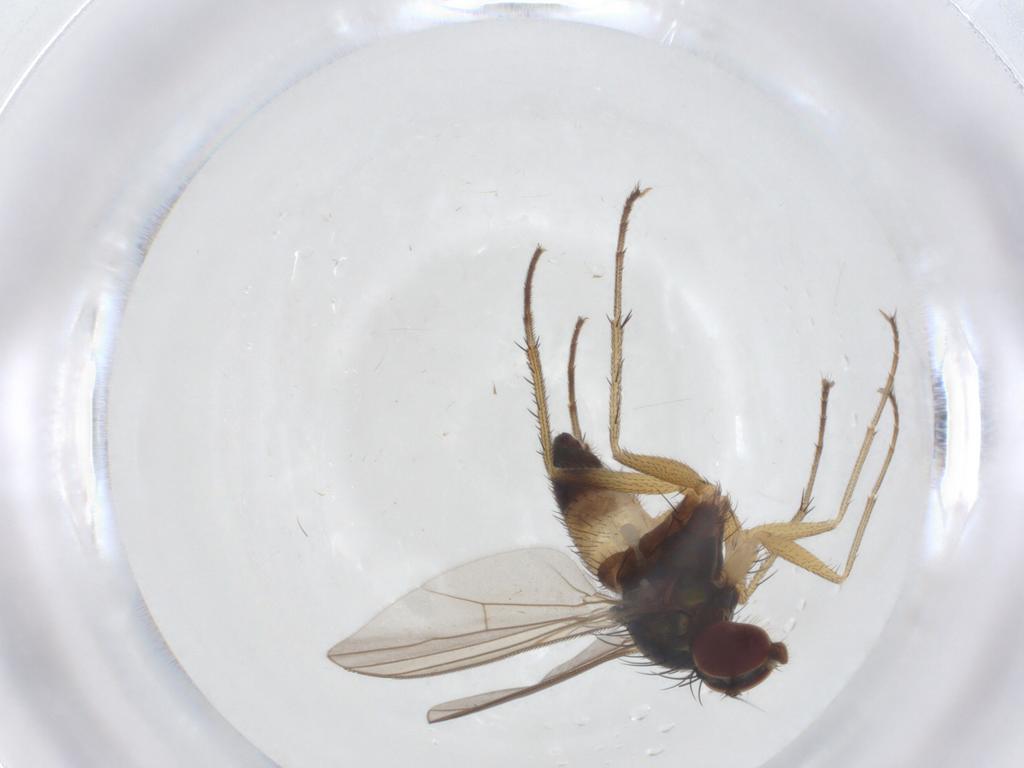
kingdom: Animalia
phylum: Arthropoda
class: Insecta
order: Diptera
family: Dolichopodidae
